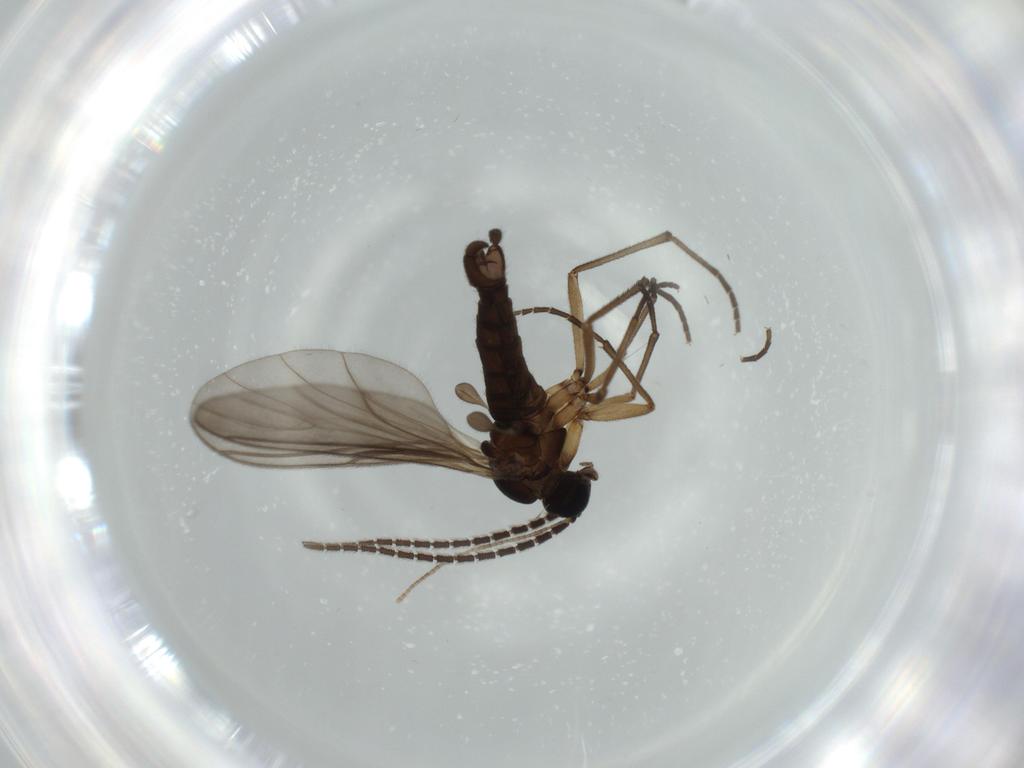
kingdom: Animalia
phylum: Arthropoda
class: Insecta
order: Diptera
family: Sciaridae
